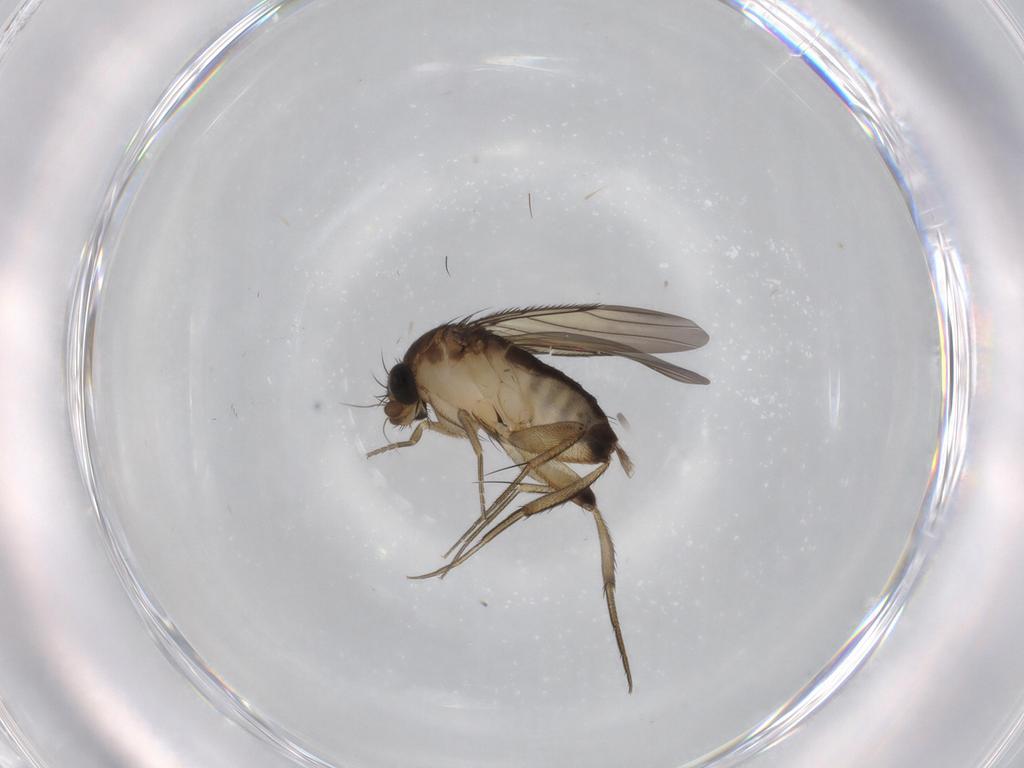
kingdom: Animalia
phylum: Arthropoda
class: Insecta
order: Diptera
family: Phoridae
